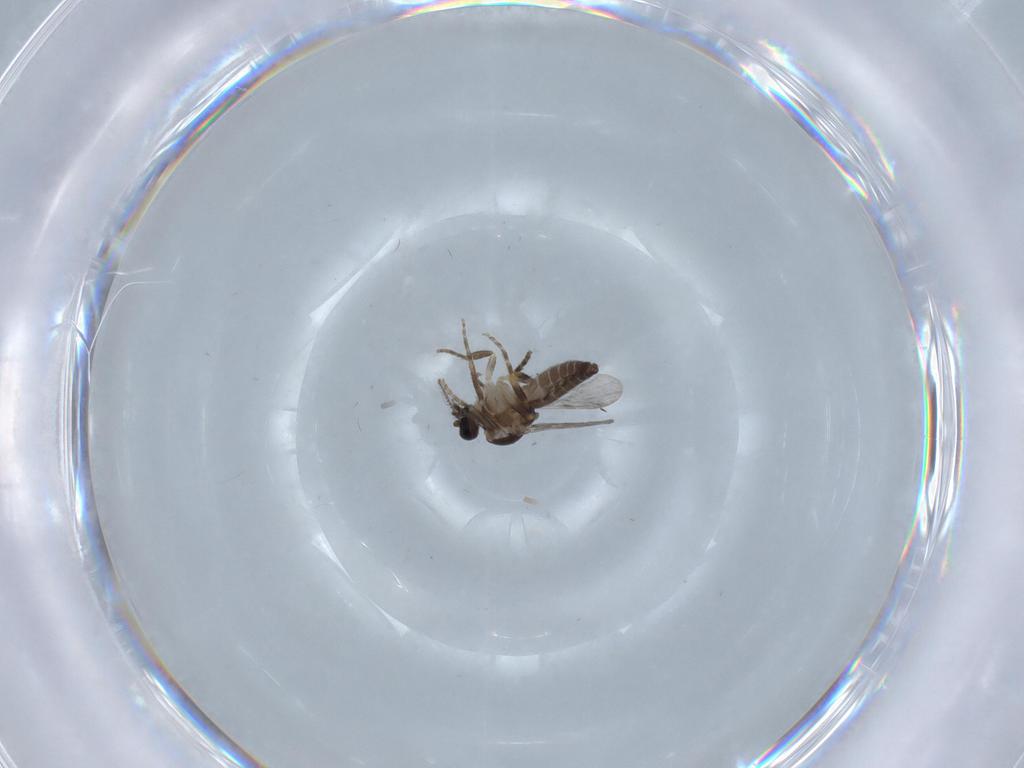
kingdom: Animalia
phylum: Arthropoda
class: Insecta
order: Diptera
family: Ceratopogonidae
